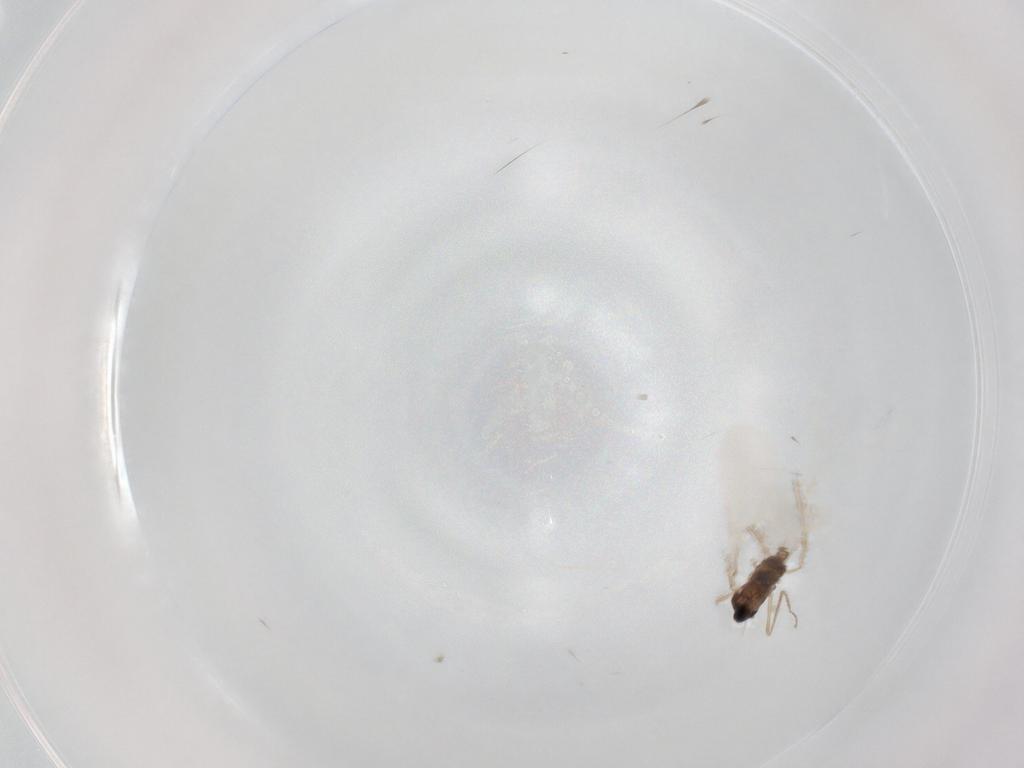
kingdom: Animalia
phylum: Arthropoda
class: Insecta
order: Diptera
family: Cecidomyiidae
